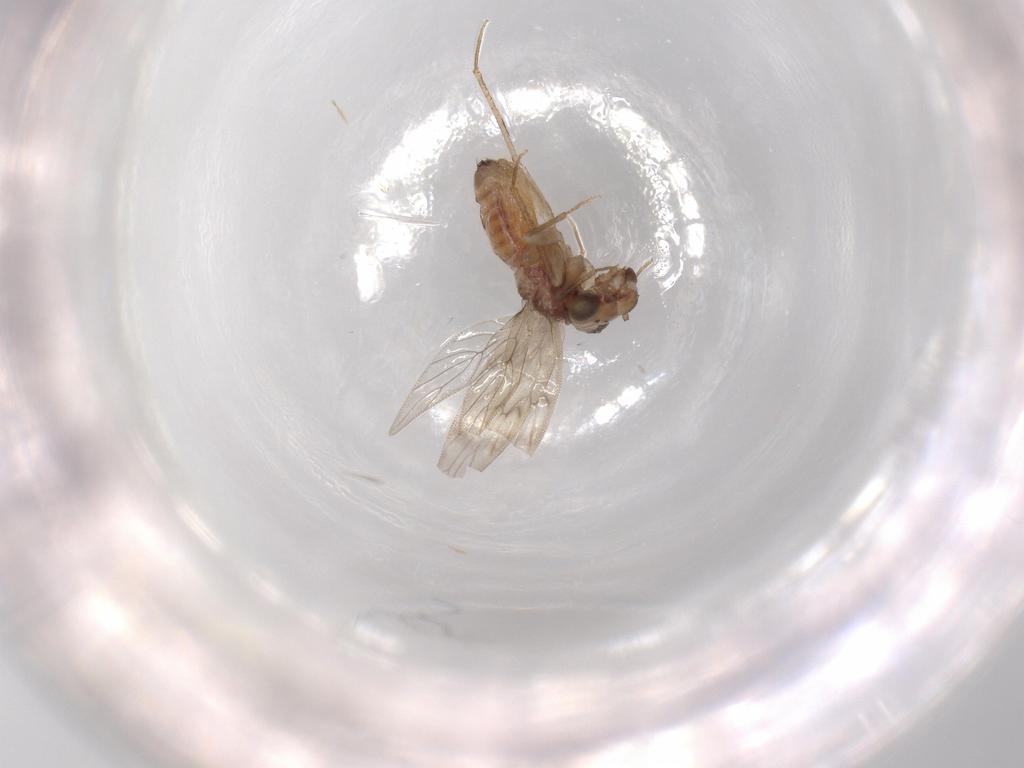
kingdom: Animalia
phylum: Arthropoda
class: Insecta
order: Psocodea
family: Lepidopsocidae
